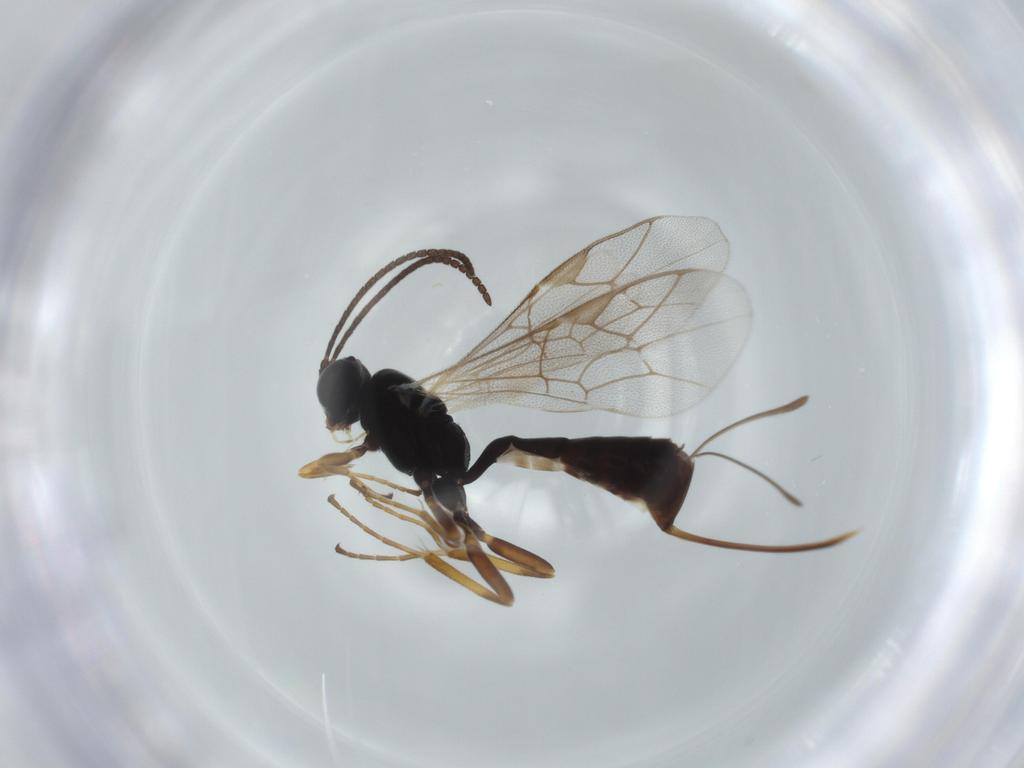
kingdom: Animalia
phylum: Arthropoda
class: Insecta
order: Hymenoptera
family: Ichneumonidae
